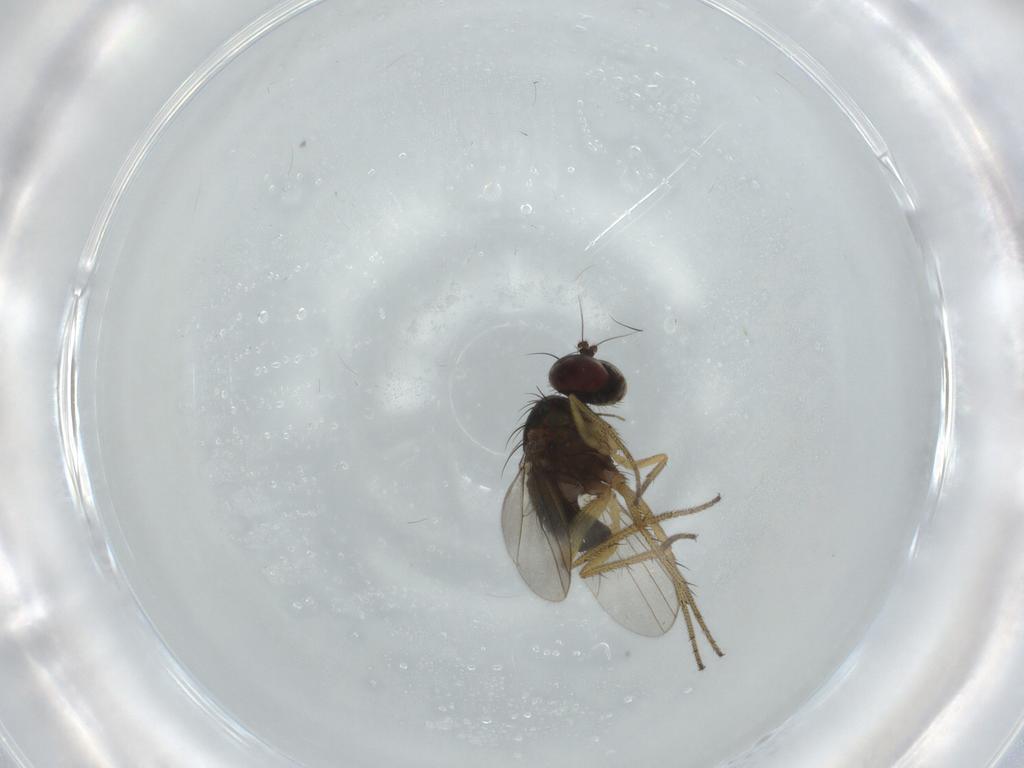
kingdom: Animalia
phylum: Arthropoda
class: Insecta
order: Diptera
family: Dolichopodidae
